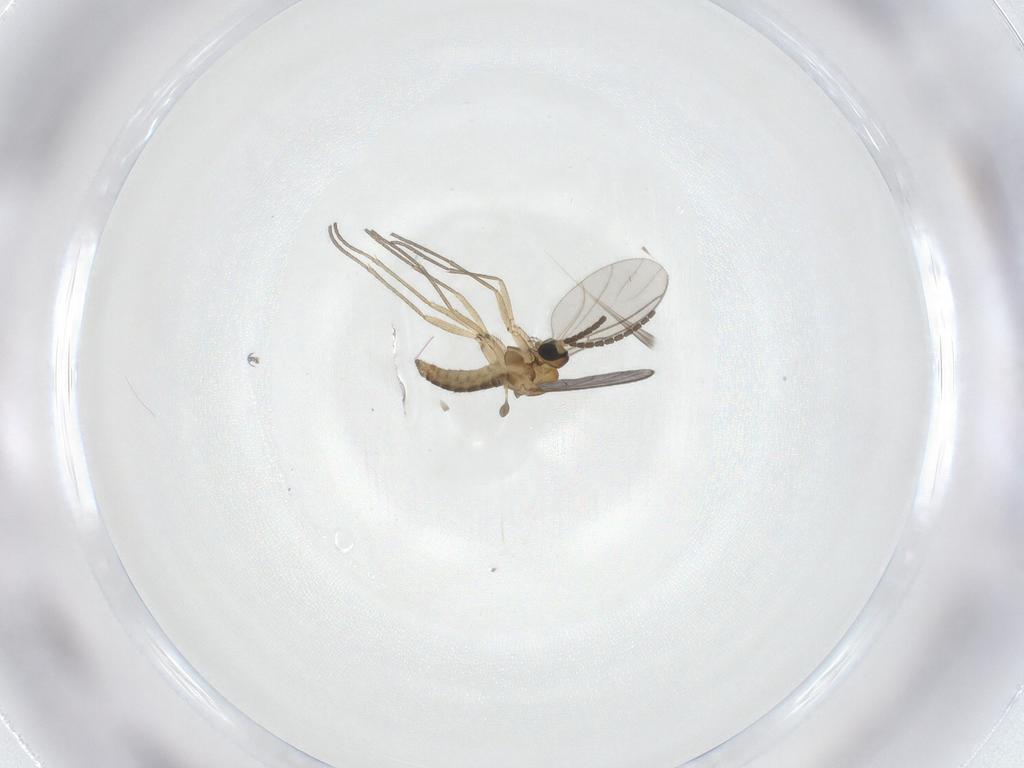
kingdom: Animalia
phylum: Arthropoda
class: Insecta
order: Diptera
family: Sciaridae
